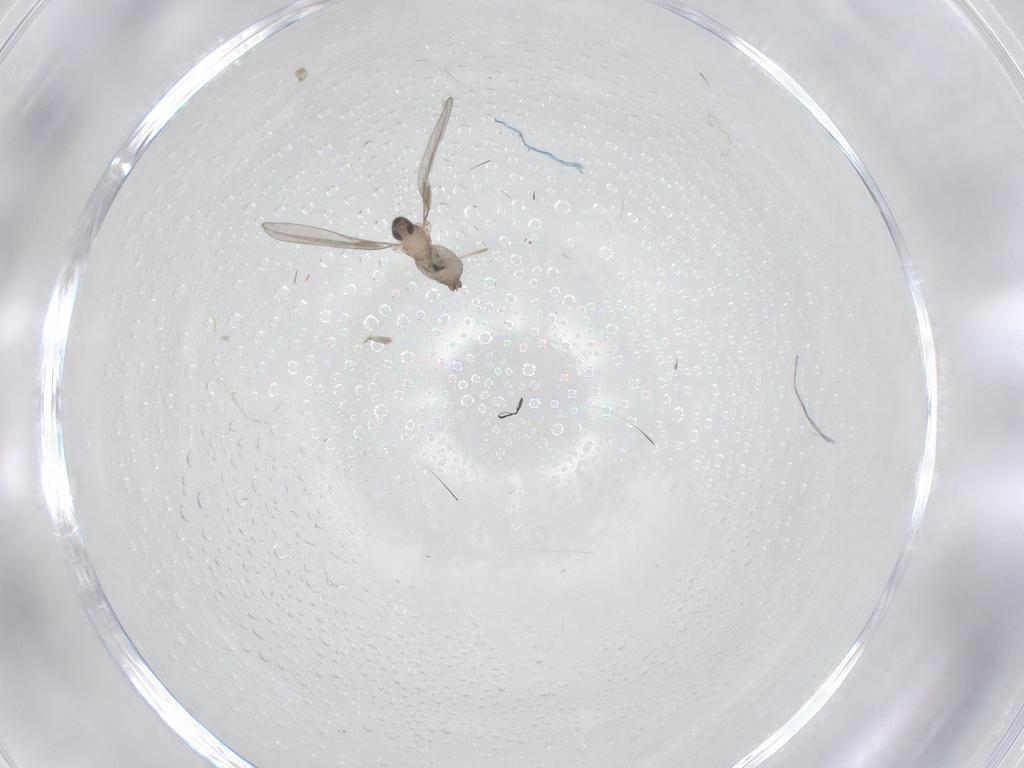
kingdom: Animalia
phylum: Arthropoda
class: Insecta
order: Diptera
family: Cecidomyiidae
